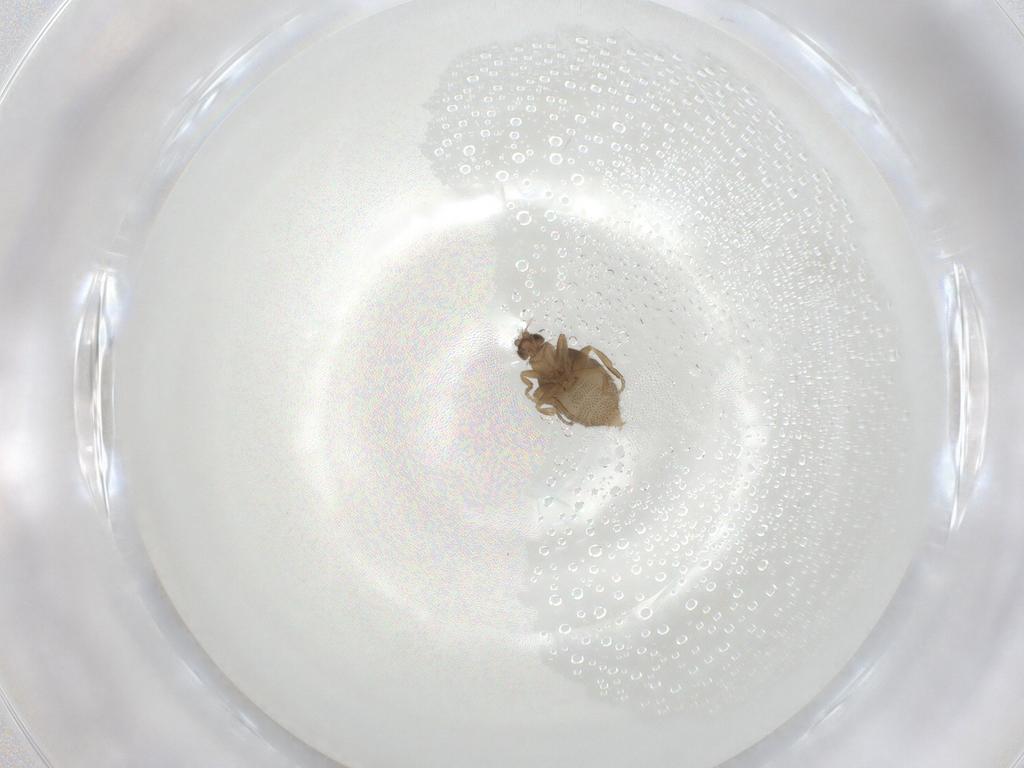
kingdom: Animalia
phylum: Arthropoda
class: Insecta
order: Diptera
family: Phoridae
